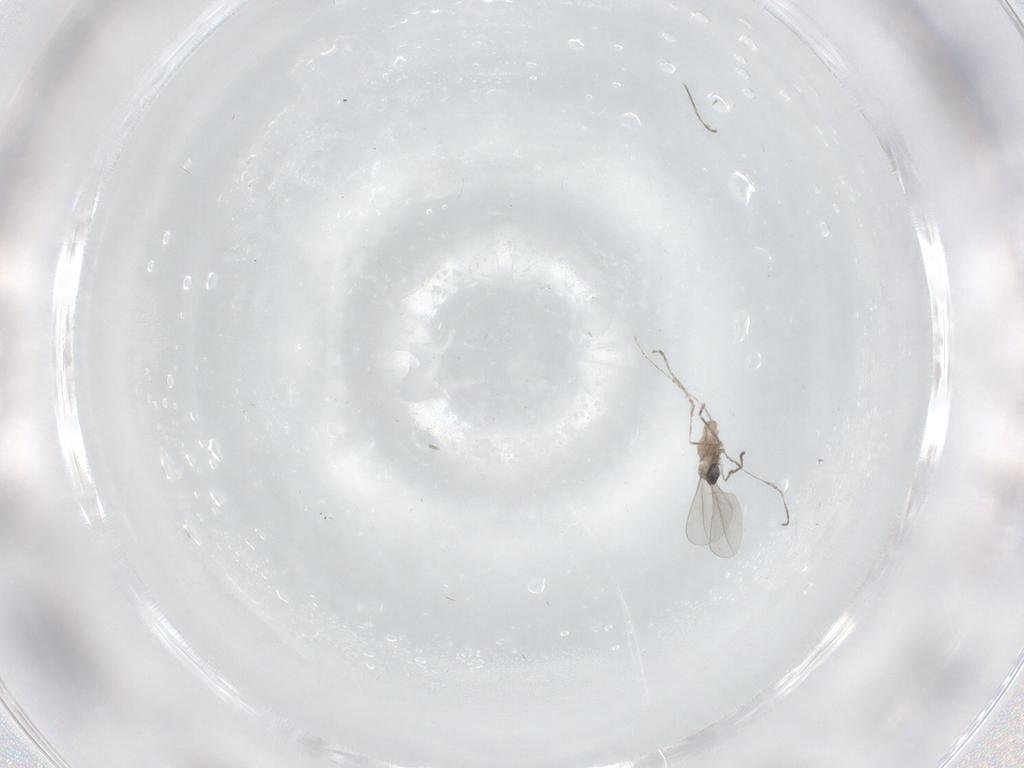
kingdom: Animalia
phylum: Arthropoda
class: Insecta
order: Diptera
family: Cecidomyiidae
